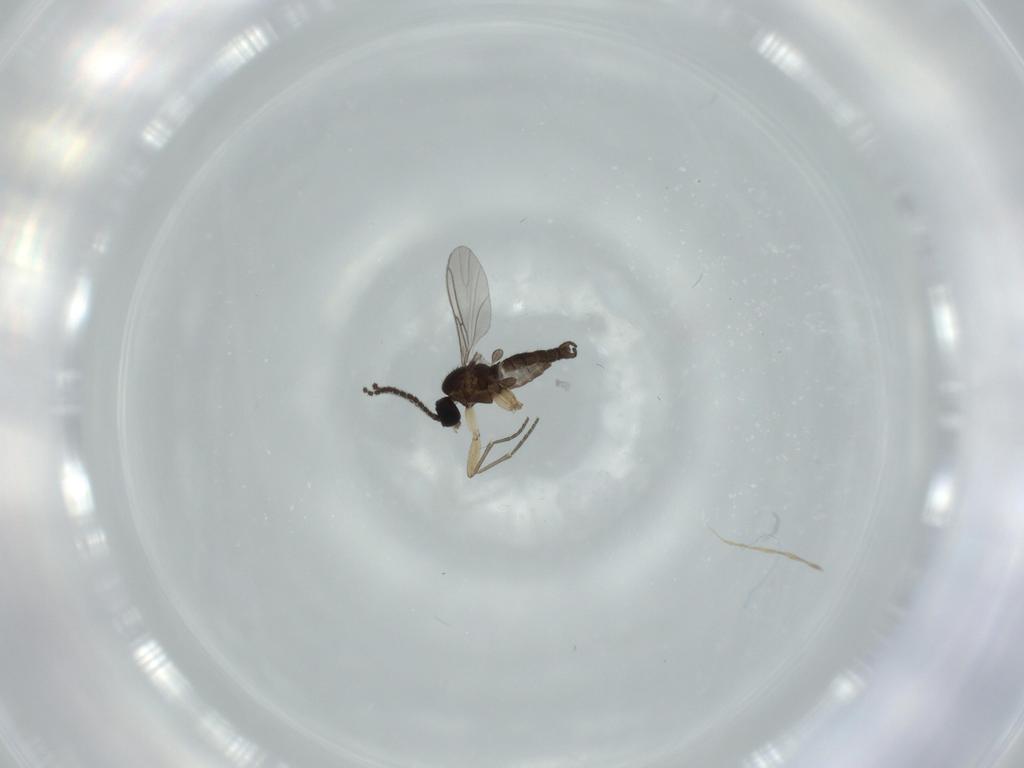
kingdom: Animalia
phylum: Arthropoda
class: Insecta
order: Diptera
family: Sciaridae
